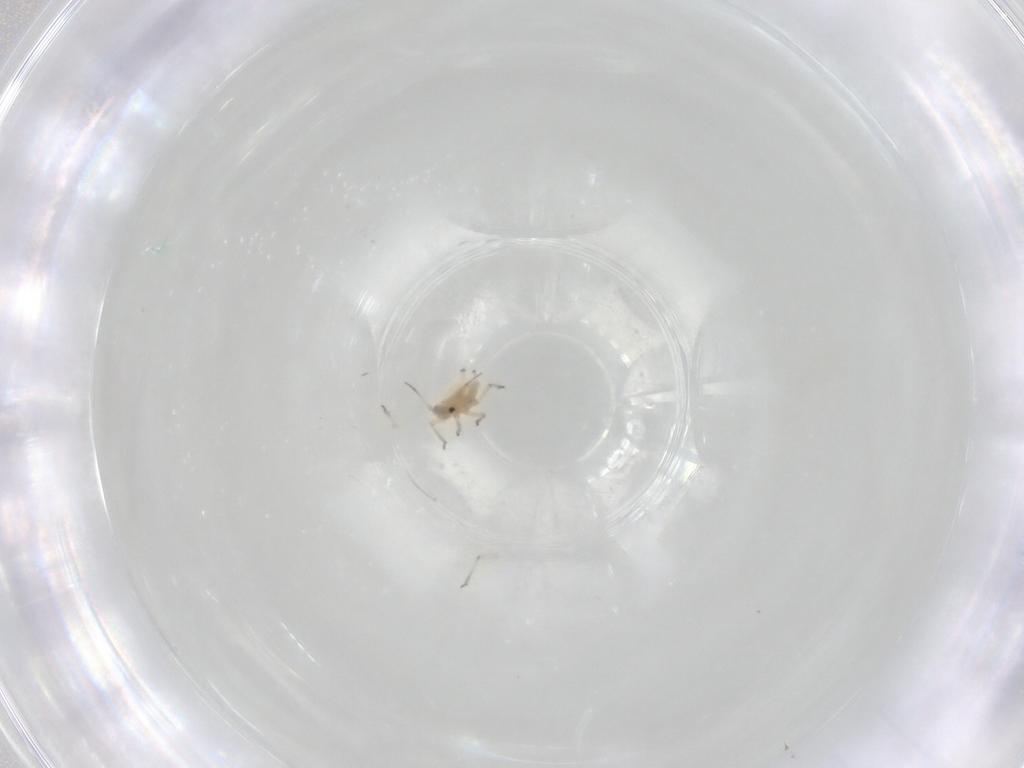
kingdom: Animalia
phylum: Arthropoda
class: Insecta
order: Hemiptera
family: Aphididae
